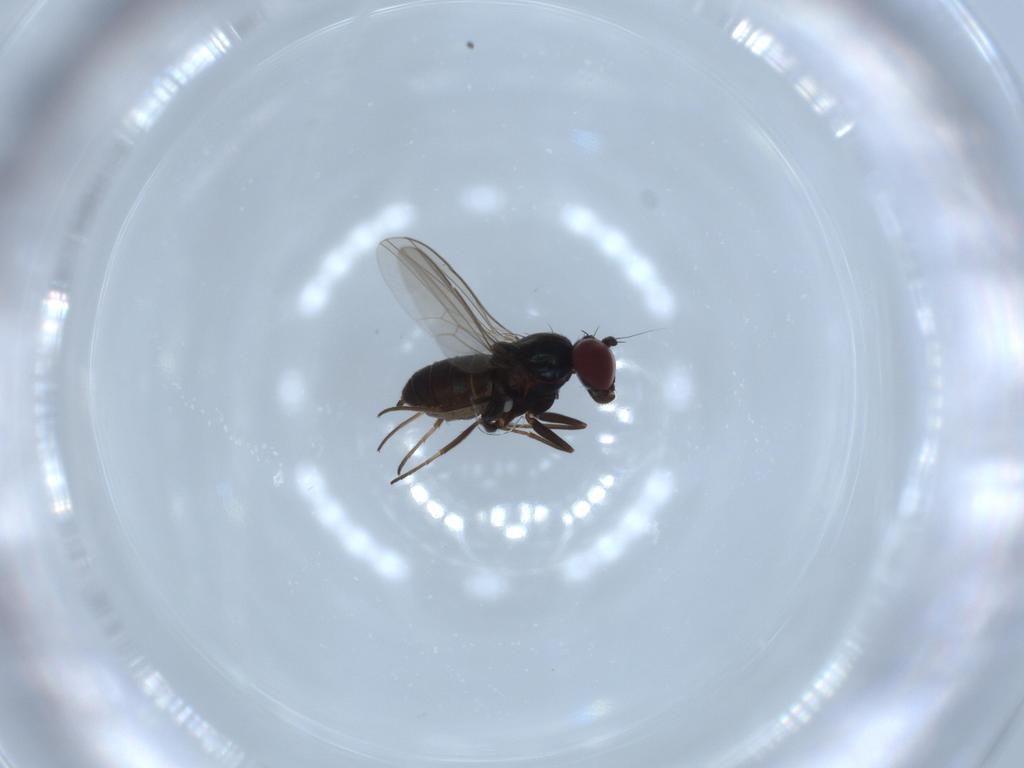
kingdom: Animalia
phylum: Arthropoda
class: Insecta
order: Diptera
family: Dolichopodidae
